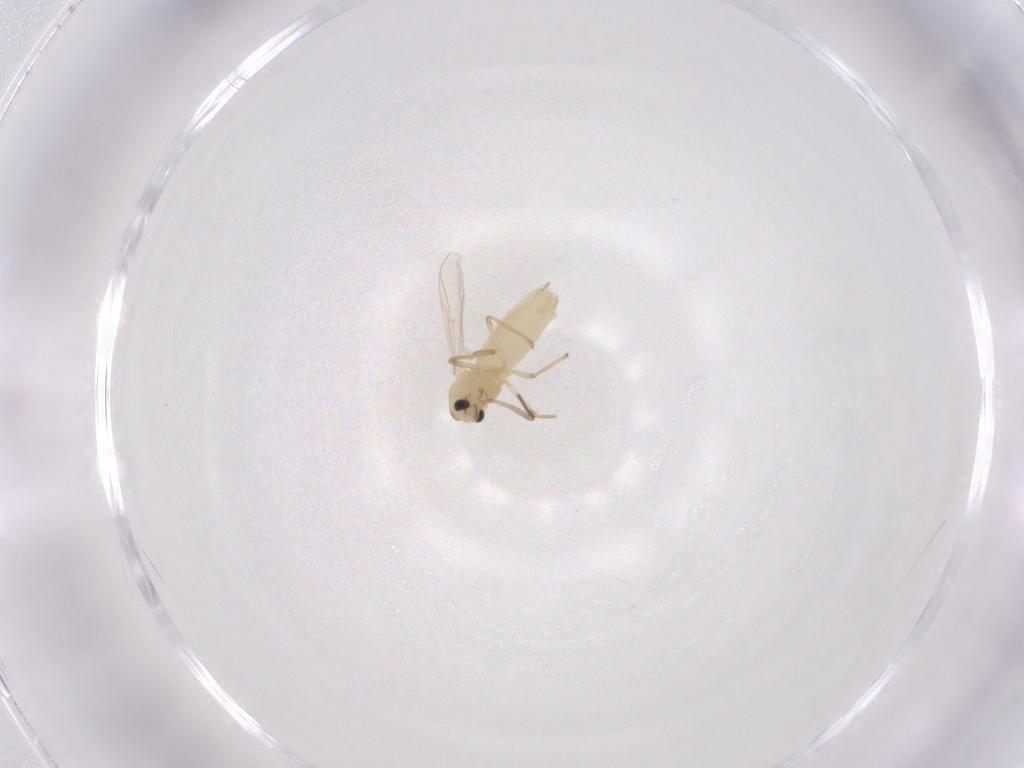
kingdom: Animalia
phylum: Arthropoda
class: Insecta
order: Diptera
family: Chironomidae
